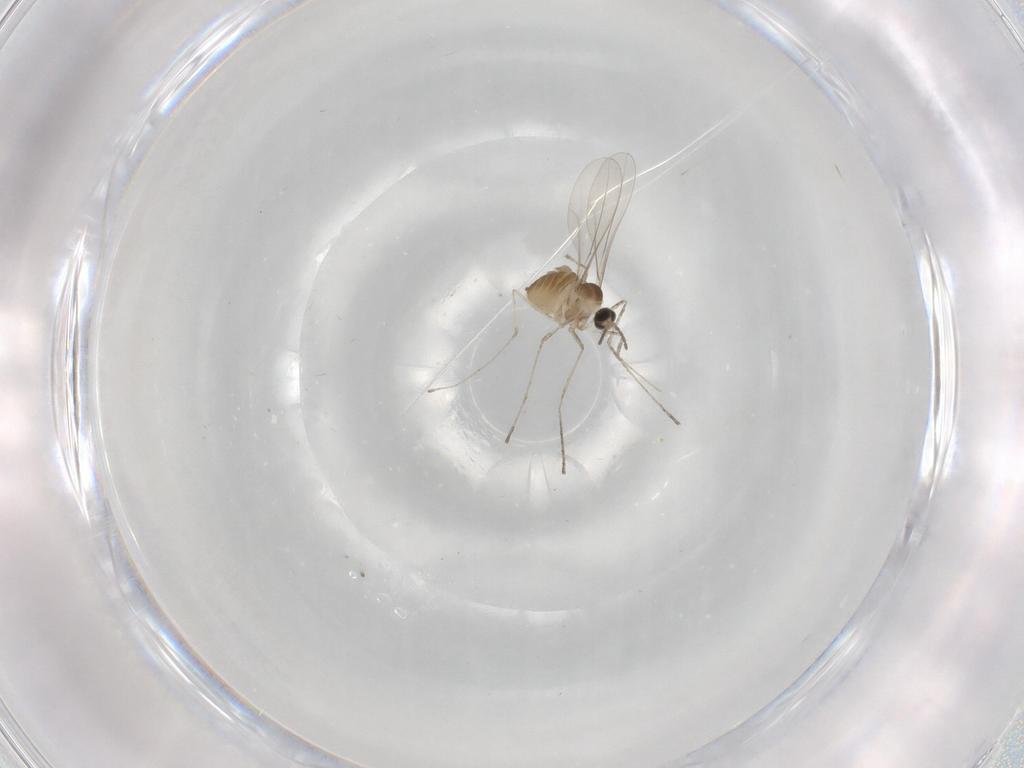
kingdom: Animalia
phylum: Arthropoda
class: Insecta
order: Diptera
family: Cecidomyiidae
